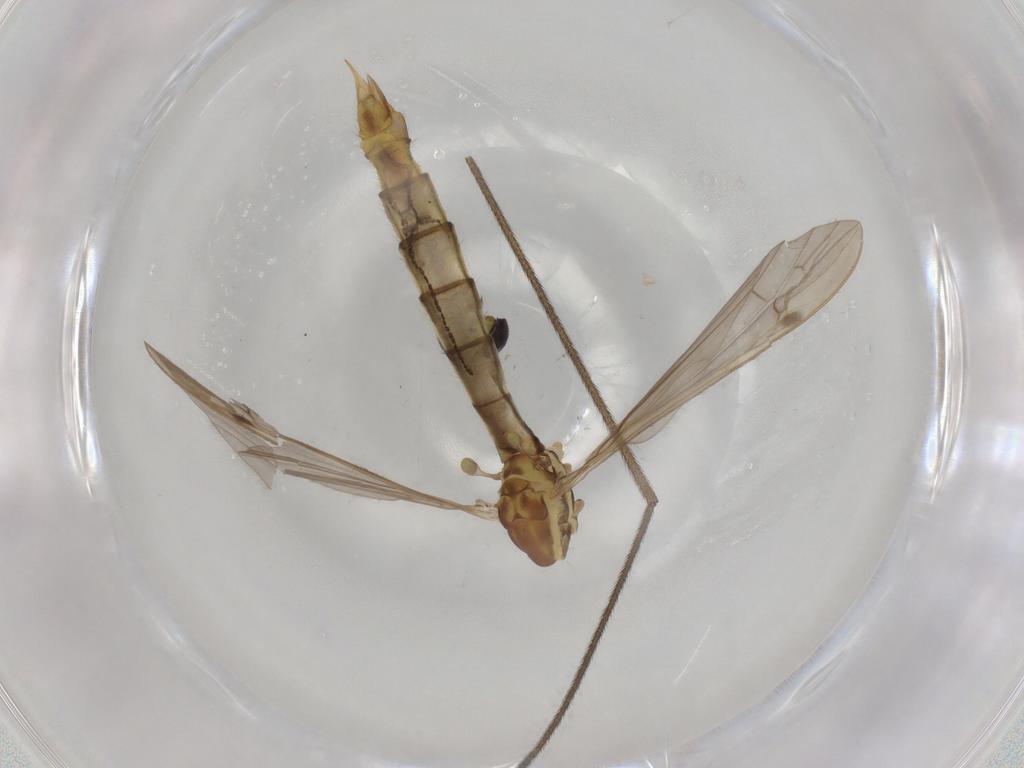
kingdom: Animalia
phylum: Arthropoda
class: Insecta
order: Diptera
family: Limoniidae
